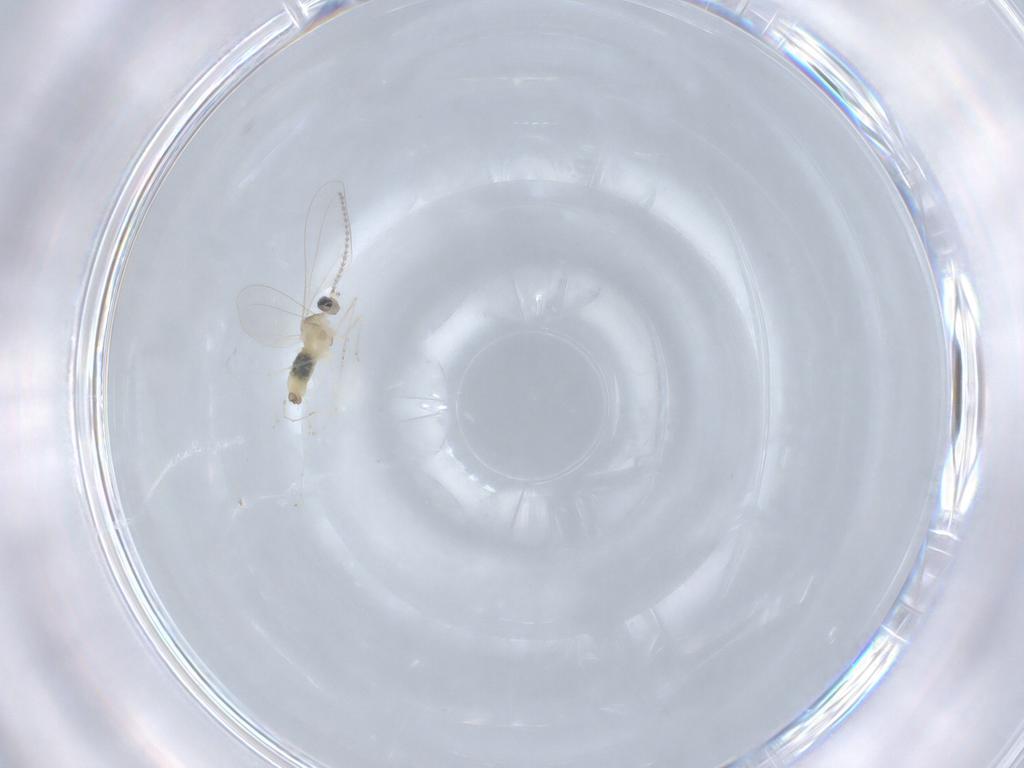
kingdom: Animalia
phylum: Arthropoda
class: Insecta
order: Diptera
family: Cecidomyiidae
